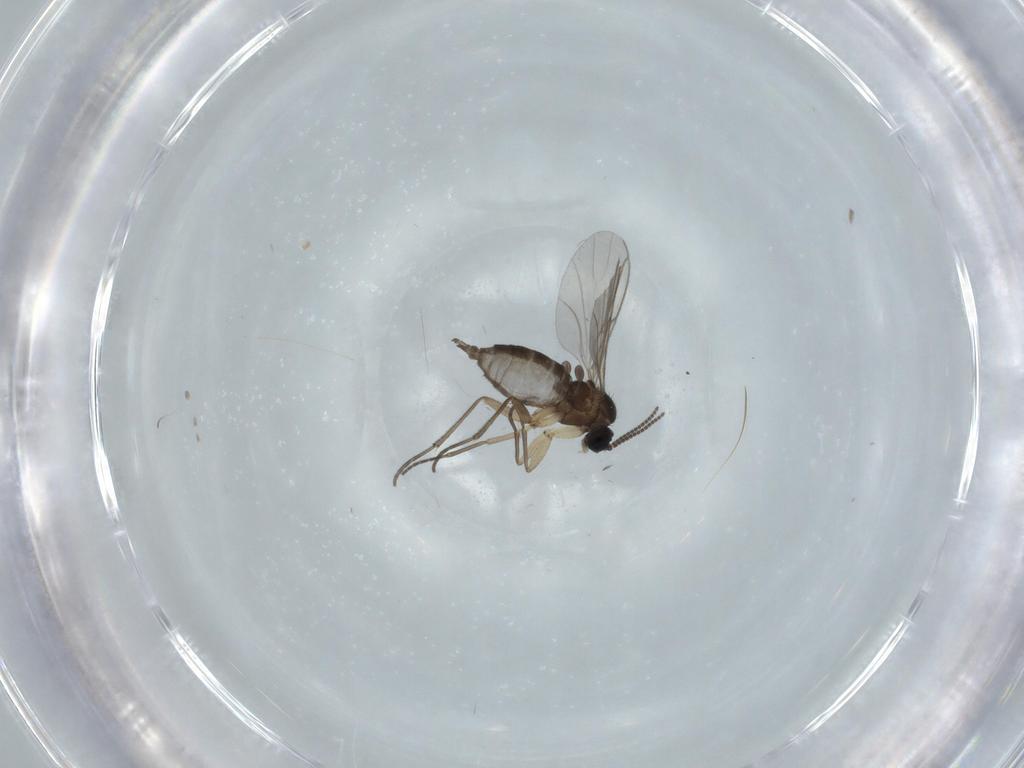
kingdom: Animalia
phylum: Arthropoda
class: Insecta
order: Diptera
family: Sciaridae
